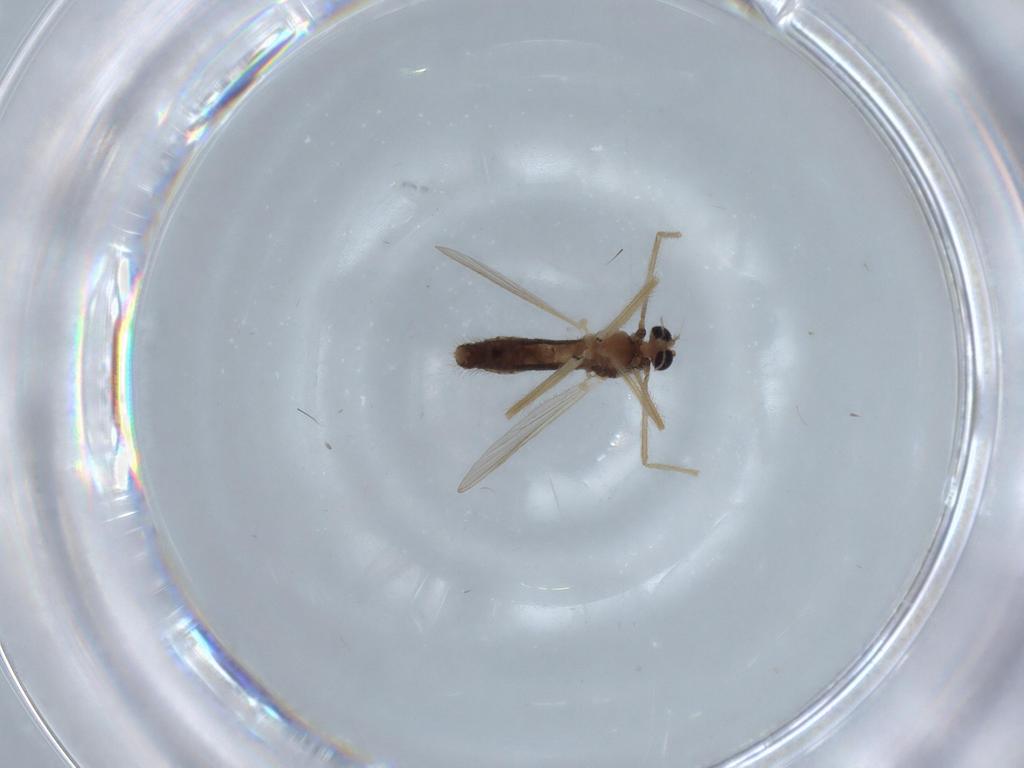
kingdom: Animalia
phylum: Arthropoda
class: Insecta
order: Diptera
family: Chironomidae
